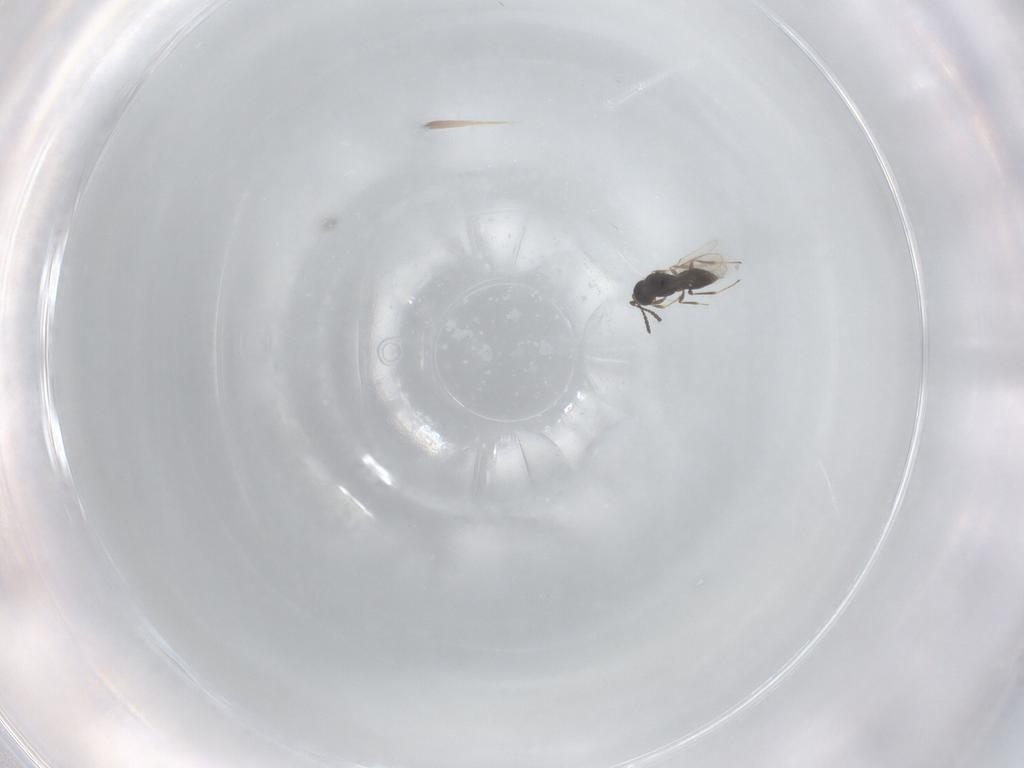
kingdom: Animalia
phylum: Arthropoda
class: Insecta
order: Hymenoptera
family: Scelionidae
